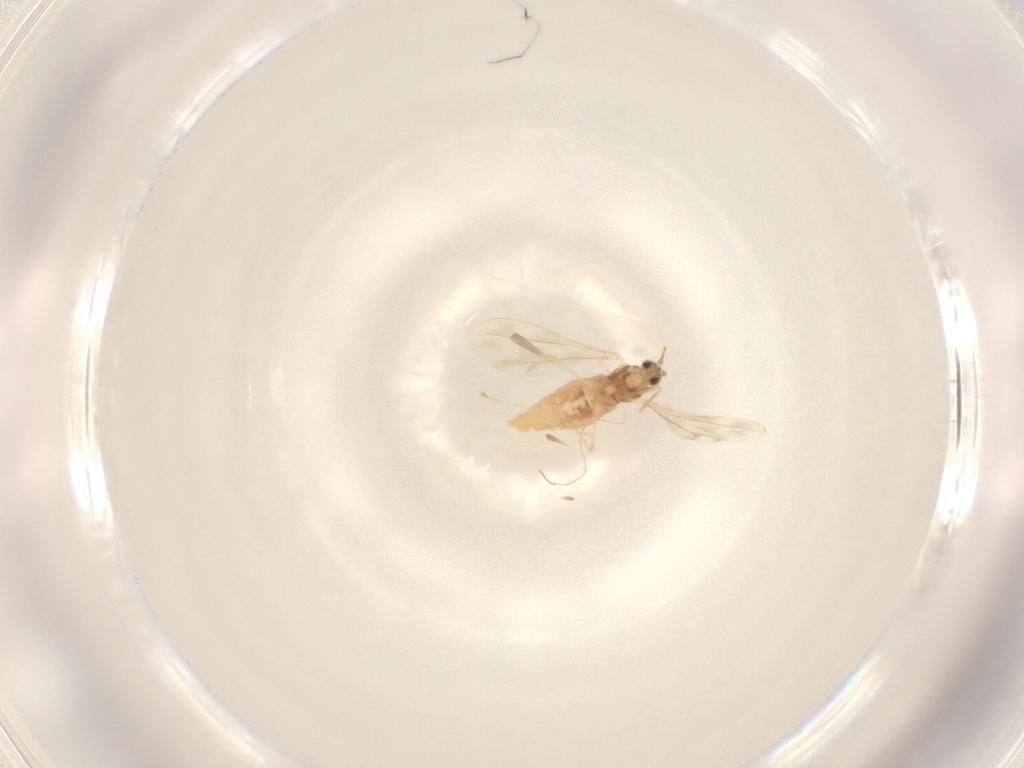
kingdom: Animalia
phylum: Arthropoda
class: Insecta
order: Diptera
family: Cecidomyiidae
